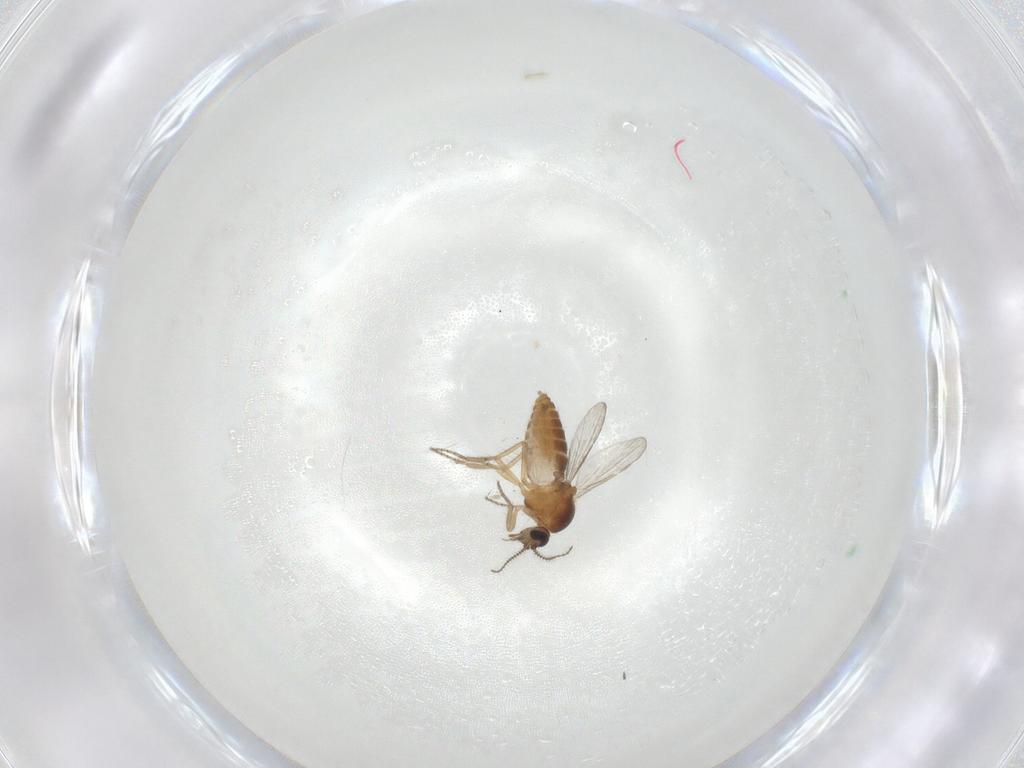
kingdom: Animalia
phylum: Arthropoda
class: Insecta
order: Diptera
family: Ceratopogonidae
